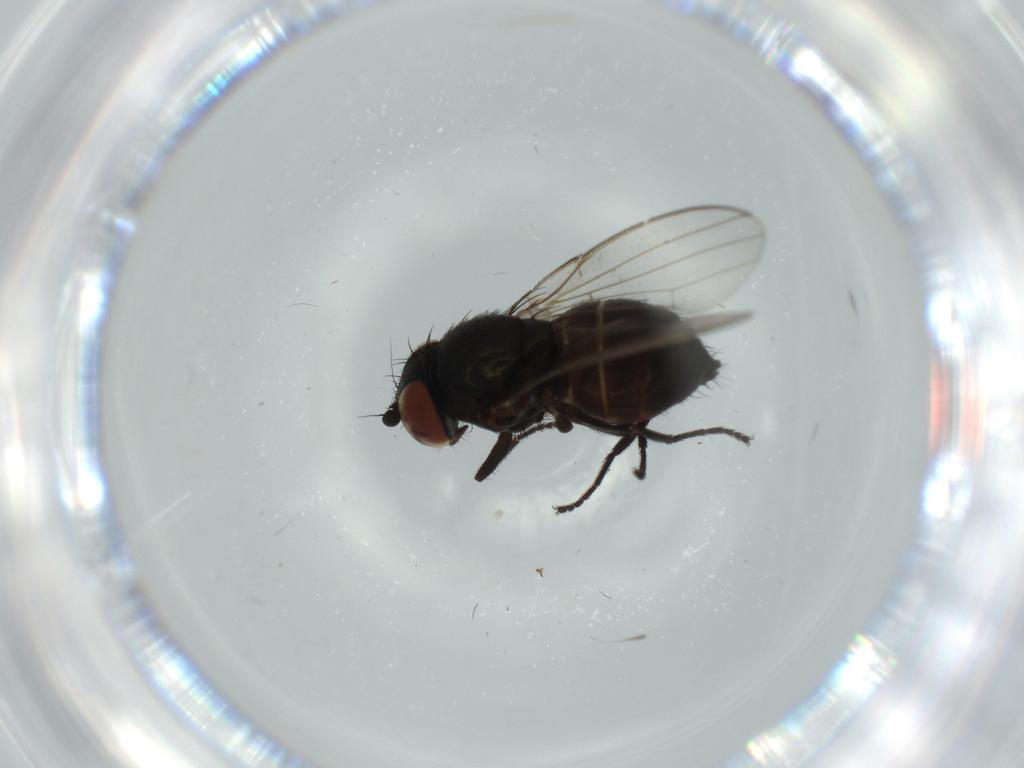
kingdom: Animalia
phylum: Arthropoda
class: Insecta
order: Diptera
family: Milichiidae
